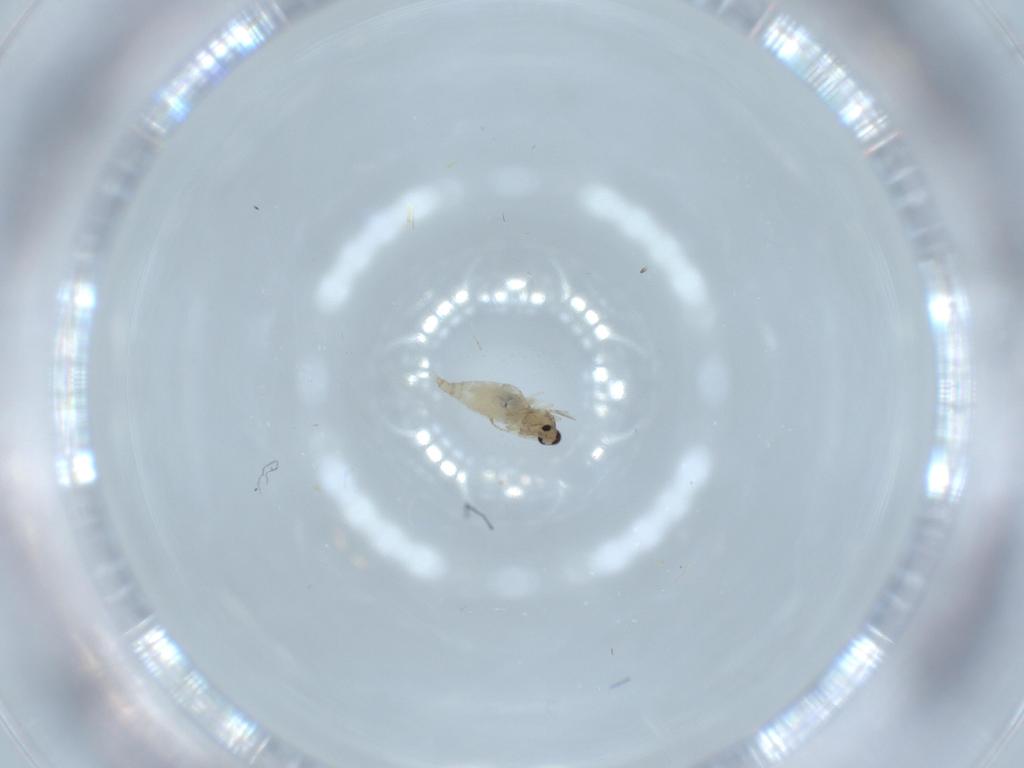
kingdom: Animalia
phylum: Arthropoda
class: Insecta
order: Diptera
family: Cecidomyiidae
